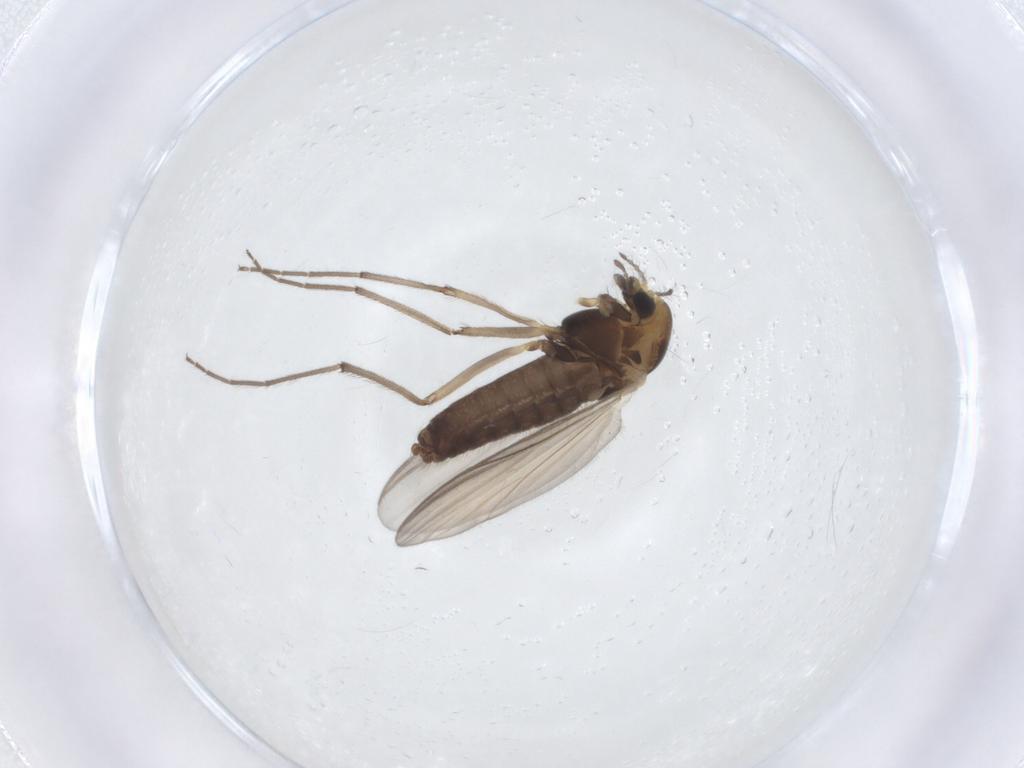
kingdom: Animalia
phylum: Arthropoda
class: Insecta
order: Diptera
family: Chironomidae
